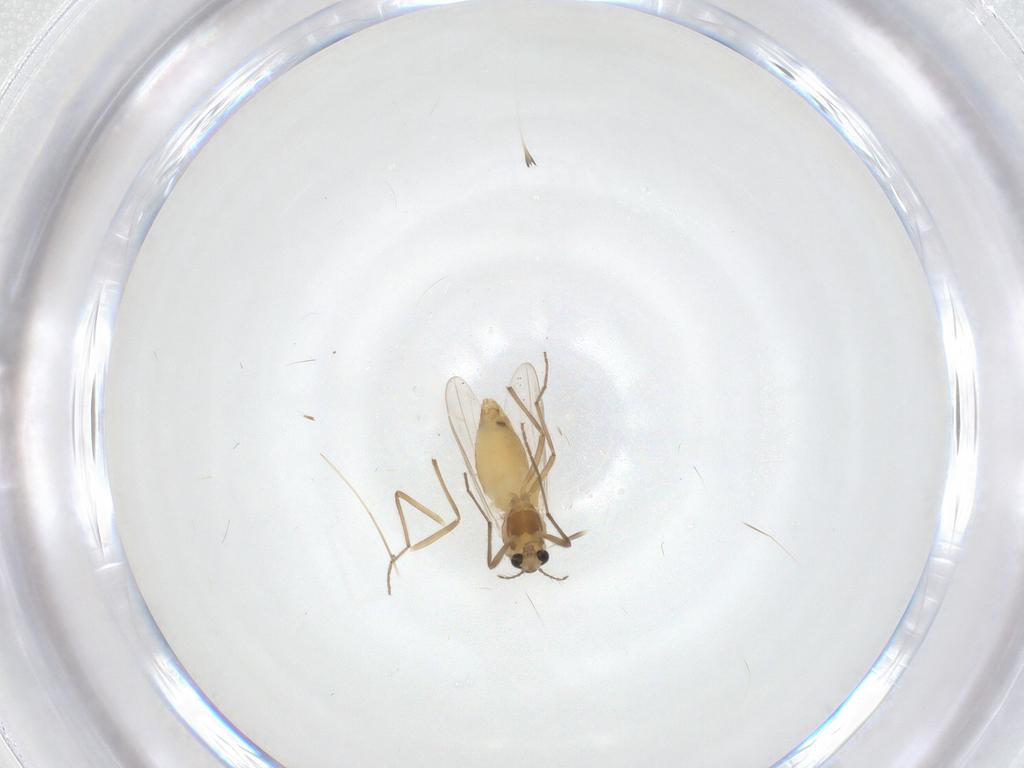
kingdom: Animalia
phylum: Arthropoda
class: Insecta
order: Diptera
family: Chironomidae
